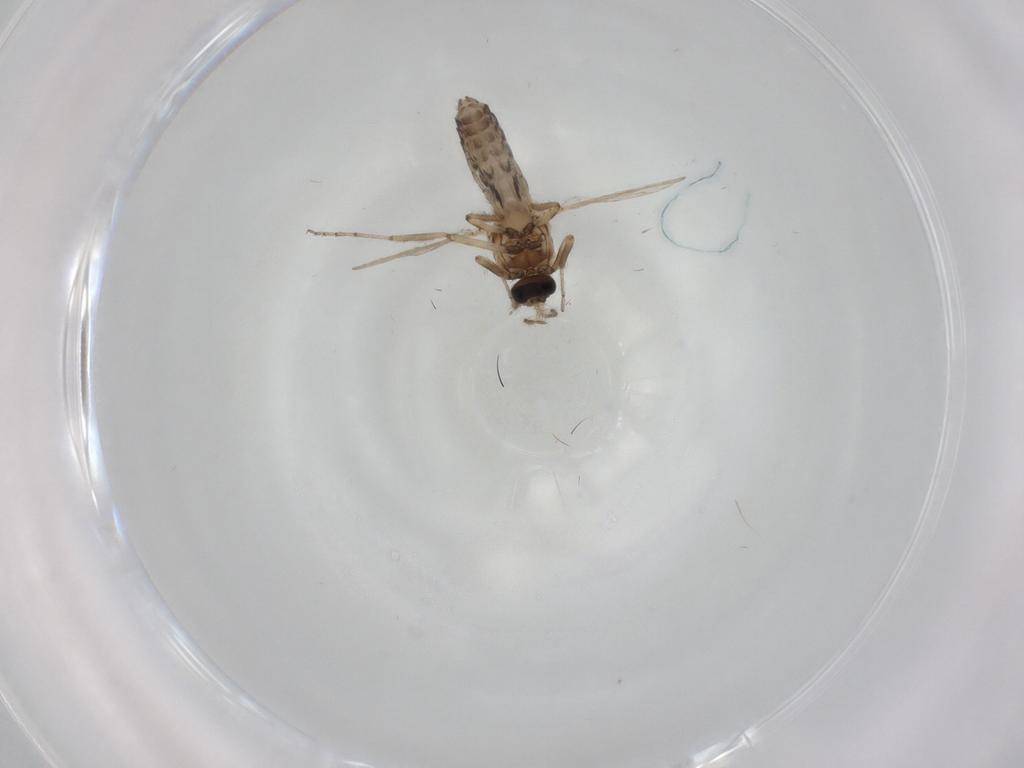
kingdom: Animalia
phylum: Arthropoda
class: Insecta
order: Diptera
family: Ceratopogonidae
